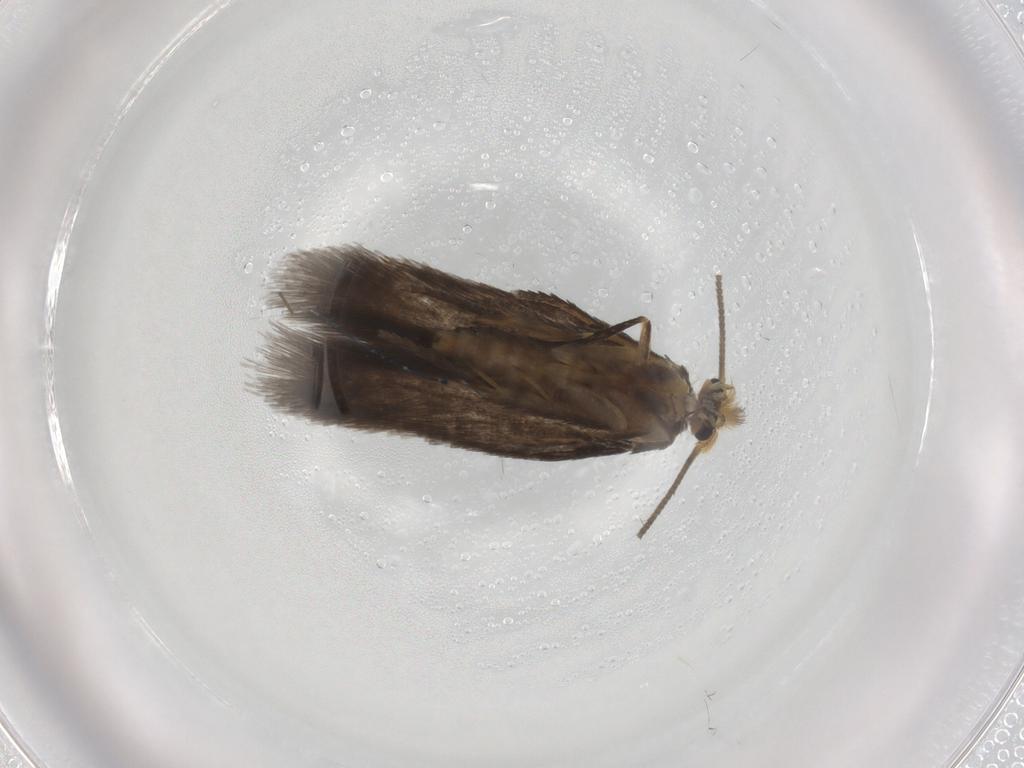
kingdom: Animalia
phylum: Arthropoda
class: Insecta
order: Lepidoptera
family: Nepticulidae
